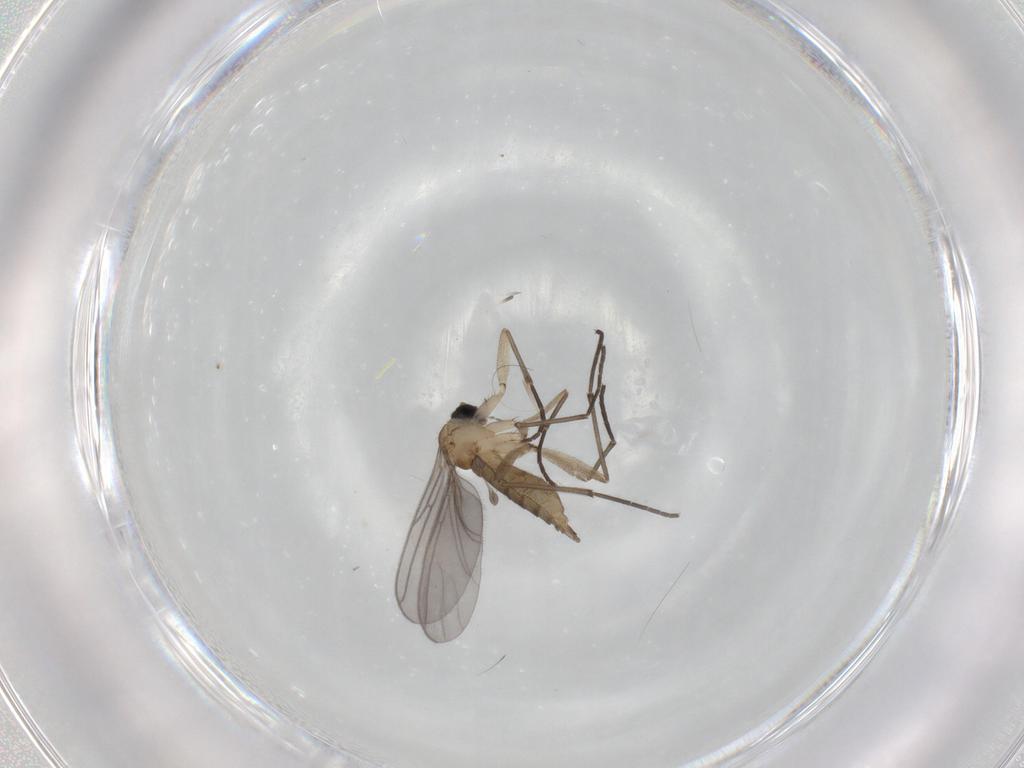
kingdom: Animalia
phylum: Arthropoda
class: Insecta
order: Diptera
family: Sciaridae
